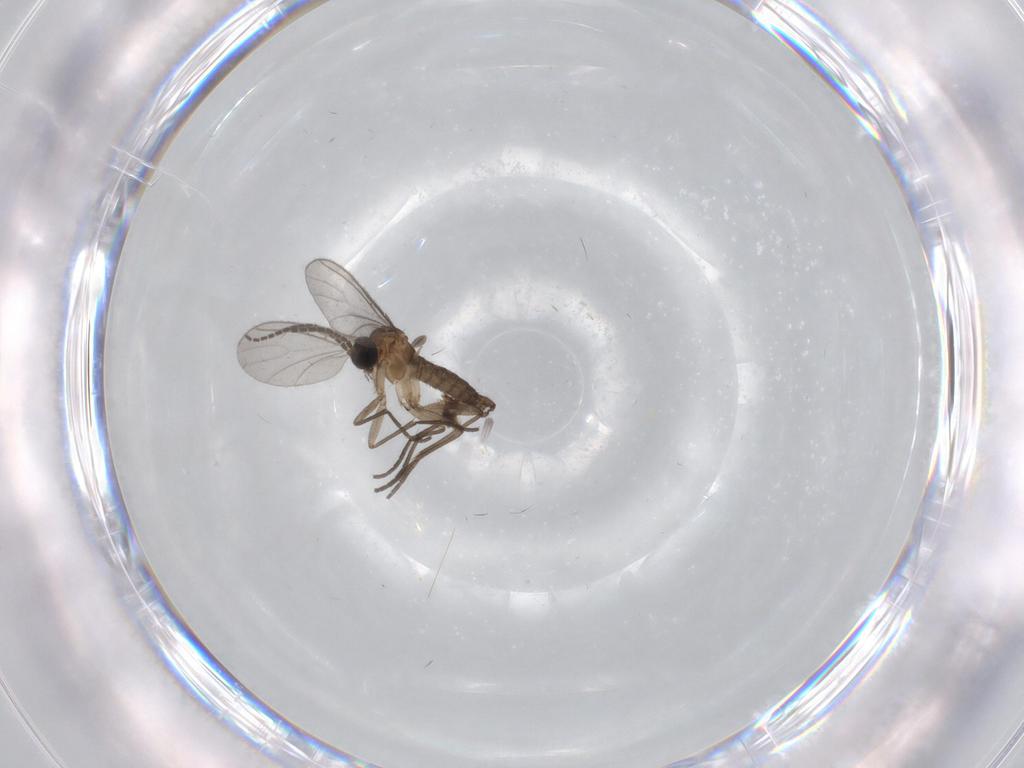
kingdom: Animalia
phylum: Arthropoda
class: Insecta
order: Diptera
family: Sciaridae
